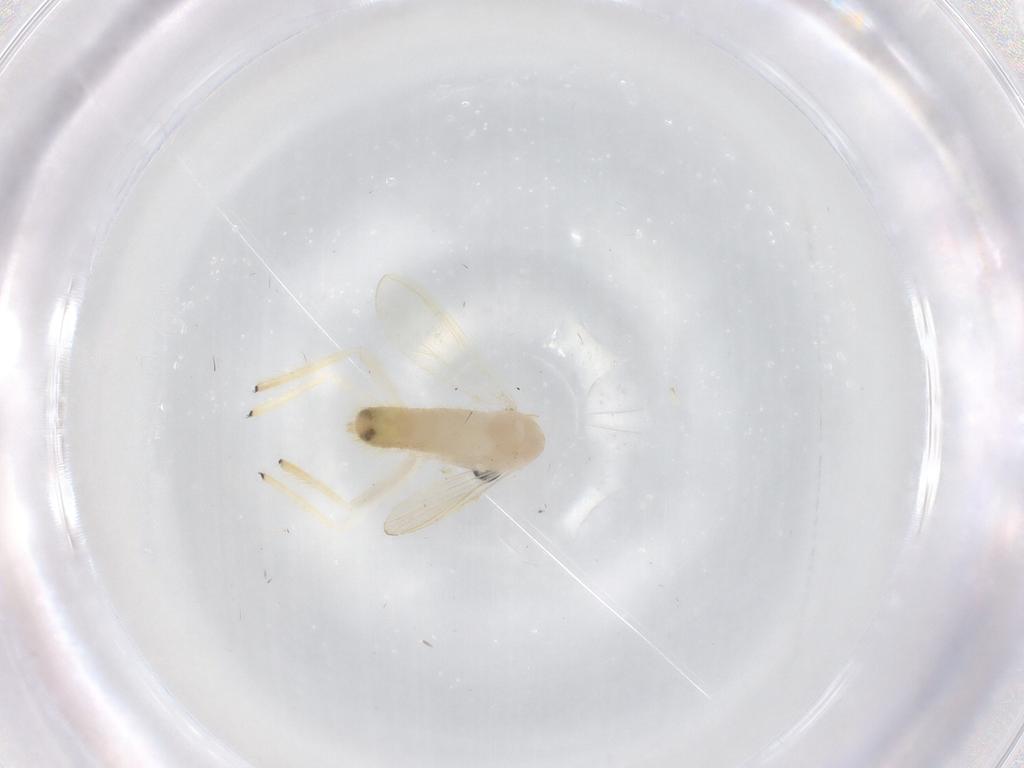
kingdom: Animalia
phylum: Arthropoda
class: Insecta
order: Diptera
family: Chironomidae
